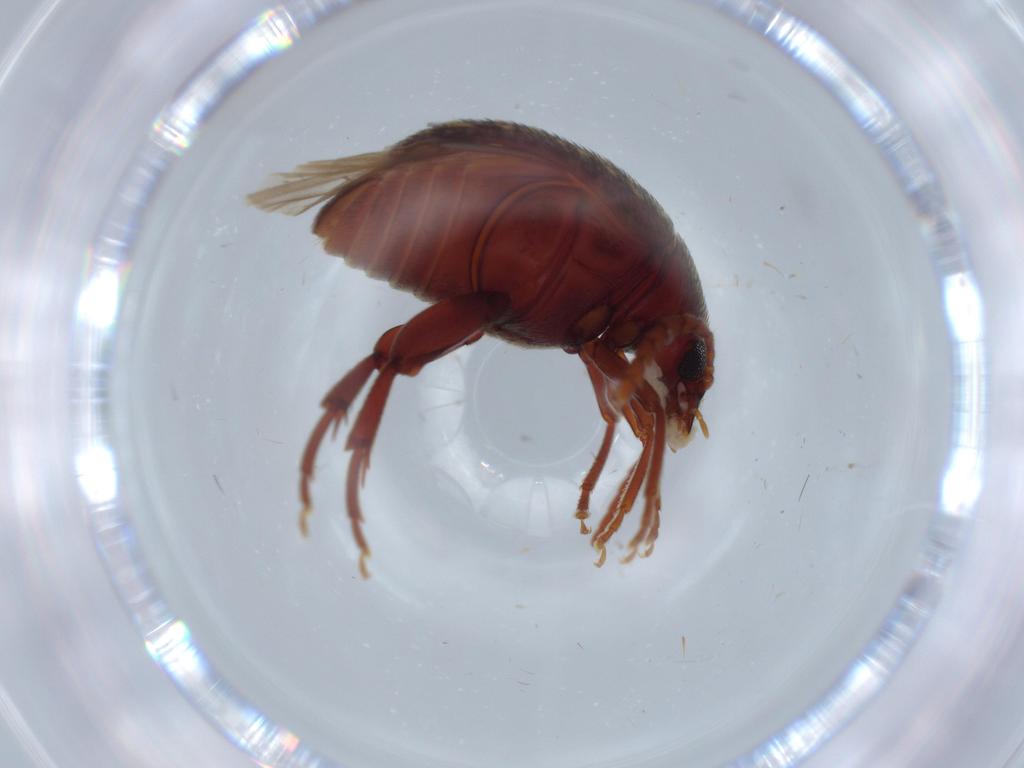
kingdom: Animalia
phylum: Arthropoda
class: Insecta
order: Coleoptera
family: Chrysomelidae
